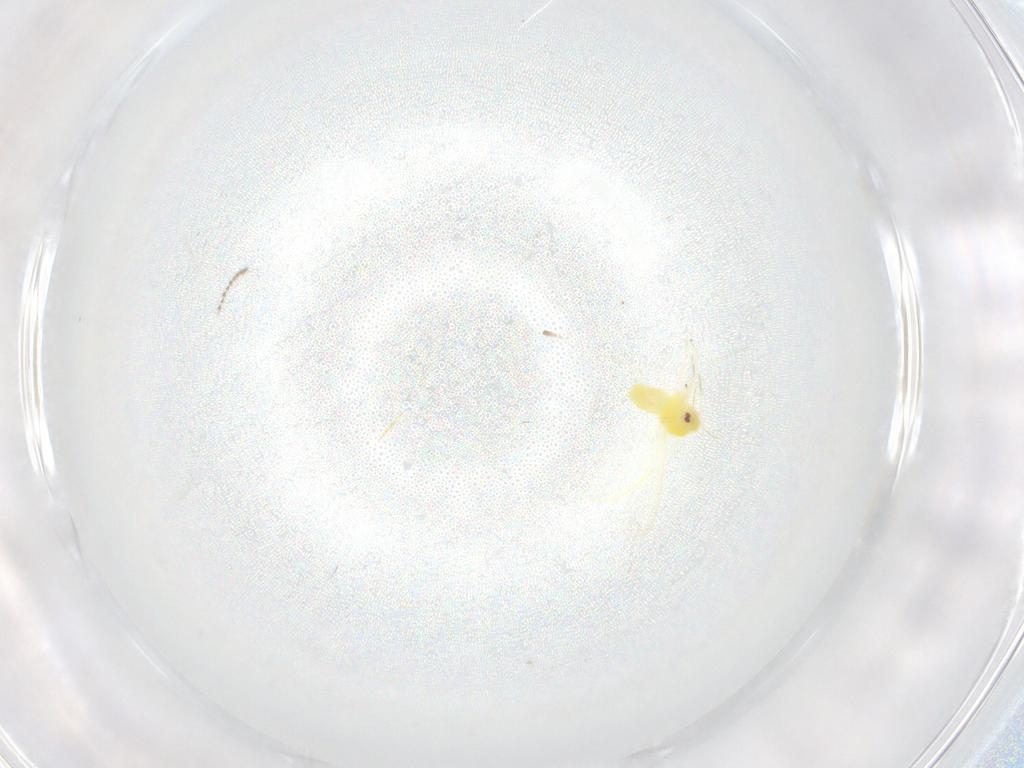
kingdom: Animalia
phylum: Arthropoda
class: Insecta
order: Hemiptera
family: Aleyrodidae
